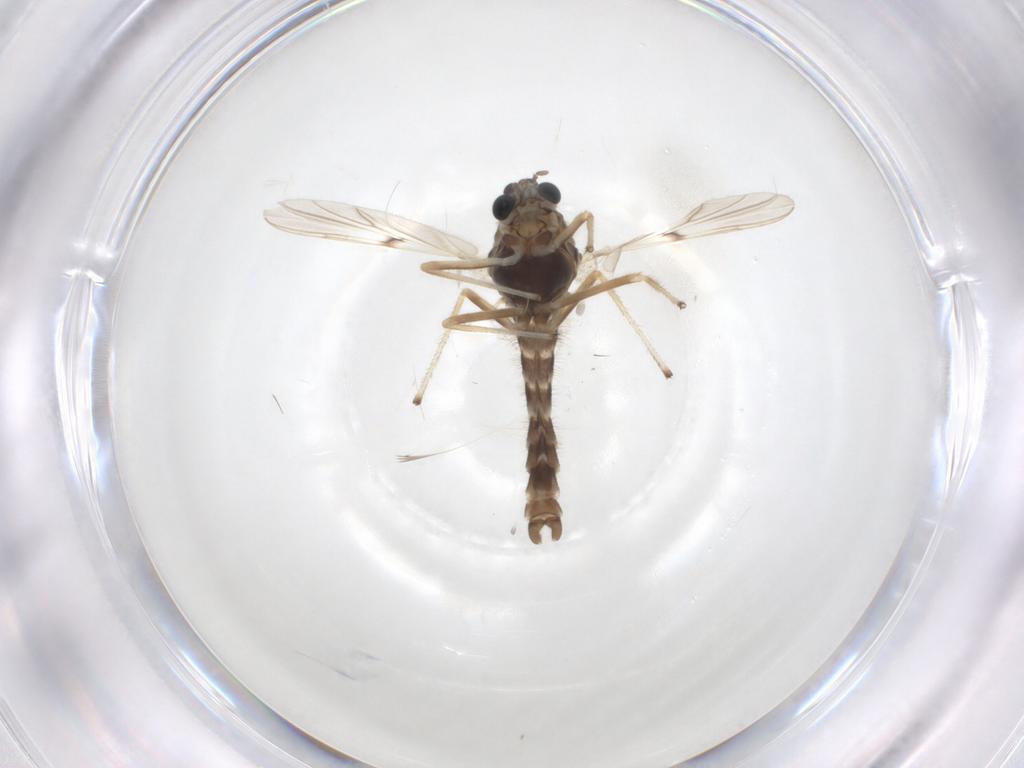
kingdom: Animalia
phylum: Arthropoda
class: Insecta
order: Diptera
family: Chironomidae
